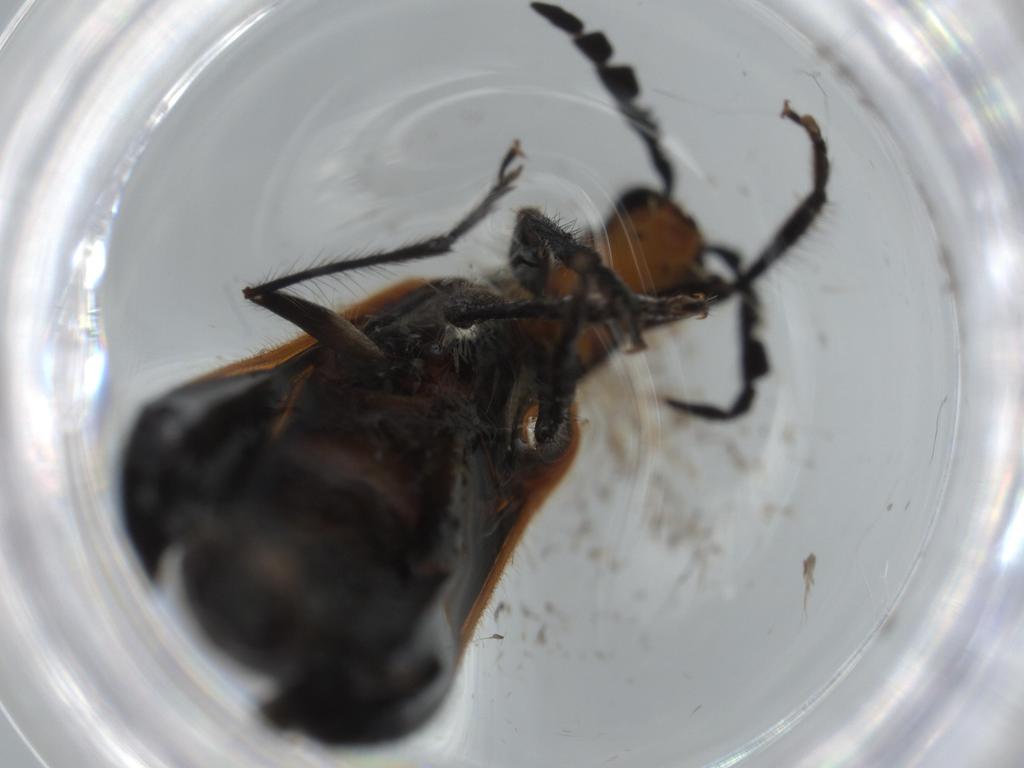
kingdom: Animalia
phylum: Arthropoda
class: Insecta
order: Coleoptera
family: Cleridae
